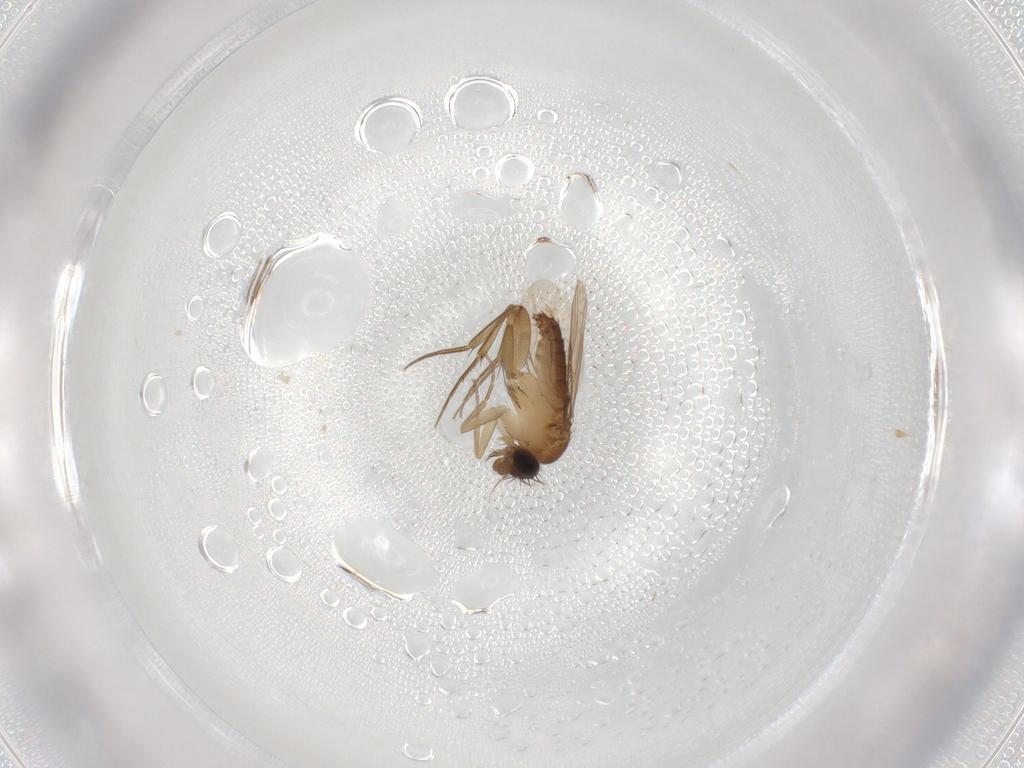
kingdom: Animalia
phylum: Arthropoda
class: Insecta
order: Diptera
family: Phoridae
